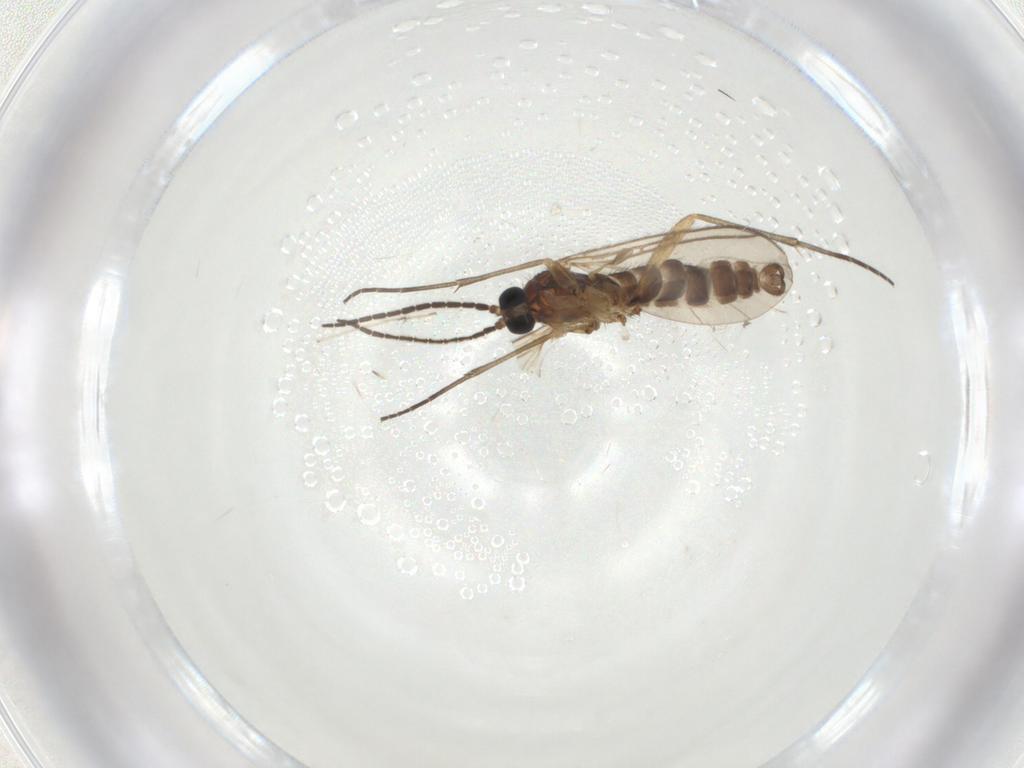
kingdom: Animalia
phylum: Arthropoda
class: Insecta
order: Diptera
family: Sciaridae
